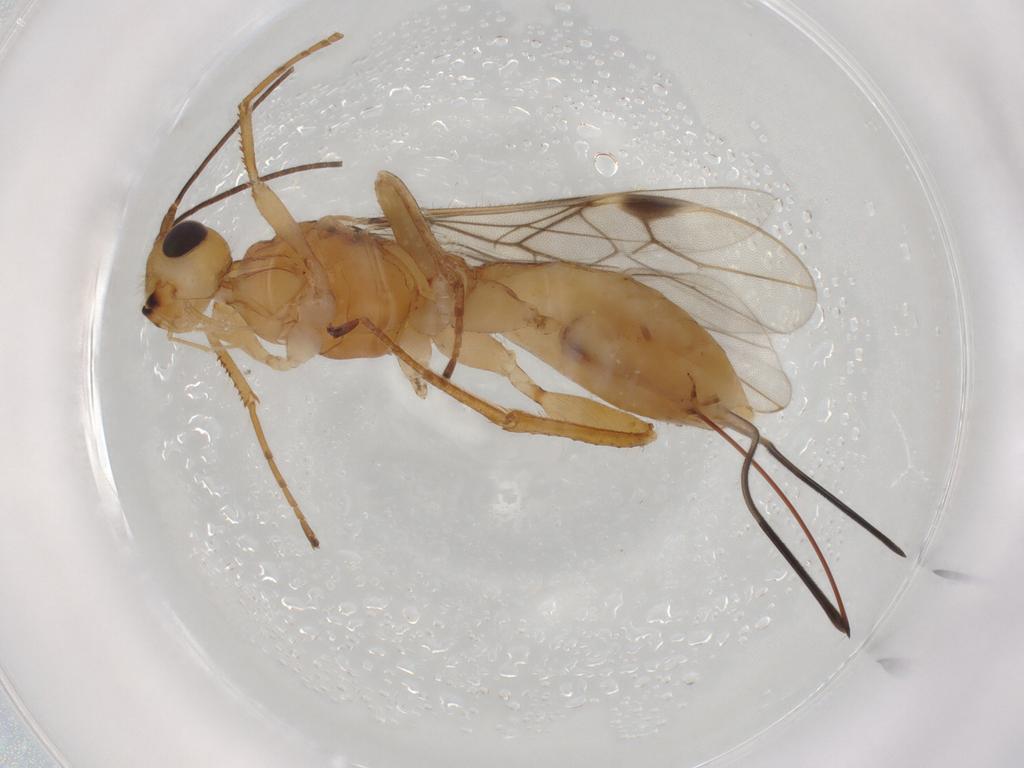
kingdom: Animalia
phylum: Arthropoda
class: Insecta
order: Hymenoptera
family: Braconidae
